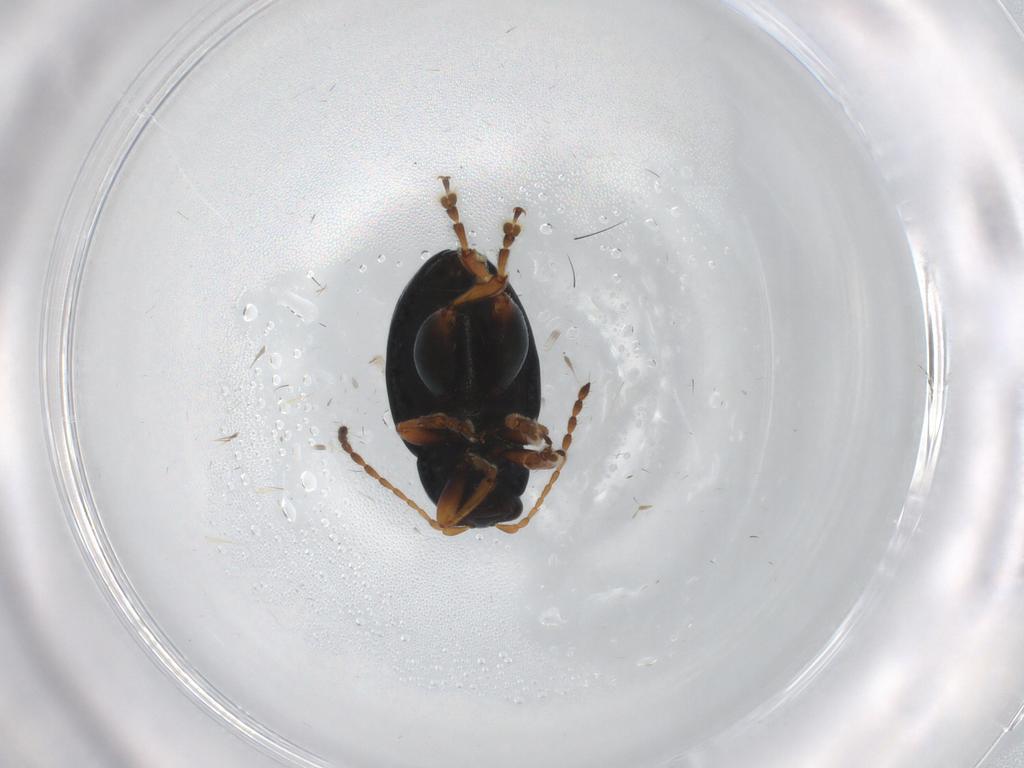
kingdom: Animalia
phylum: Arthropoda
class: Insecta
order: Coleoptera
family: Chrysomelidae
